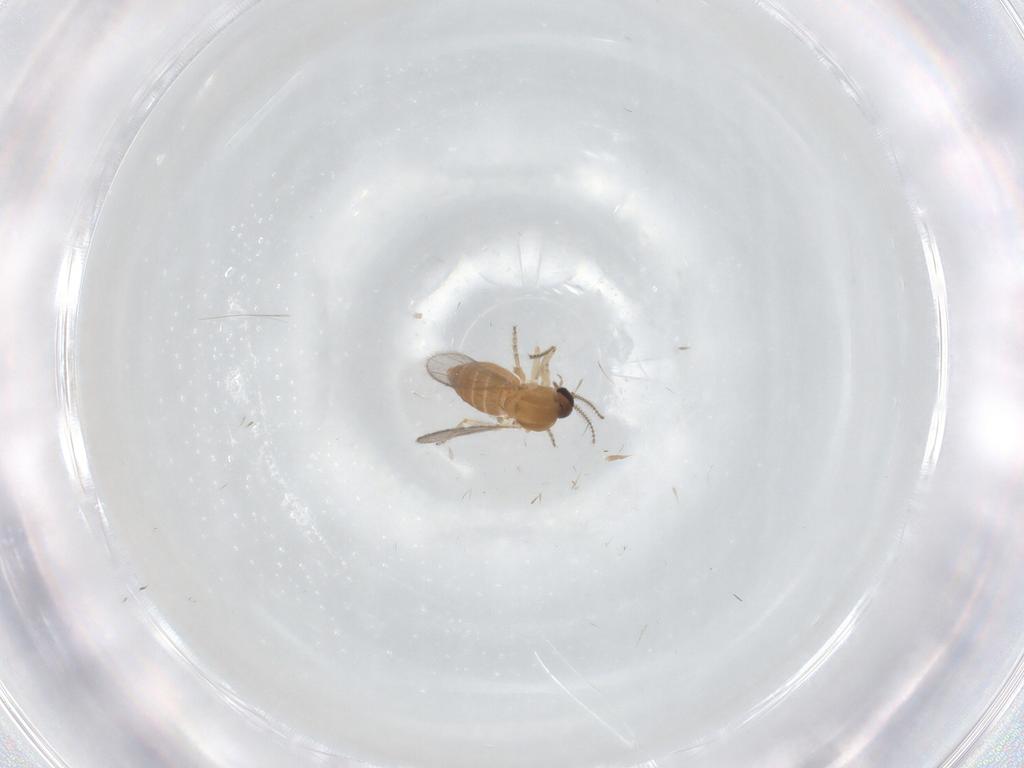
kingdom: Animalia
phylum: Arthropoda
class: Insecta
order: Diptera
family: Ceratopogonidae
